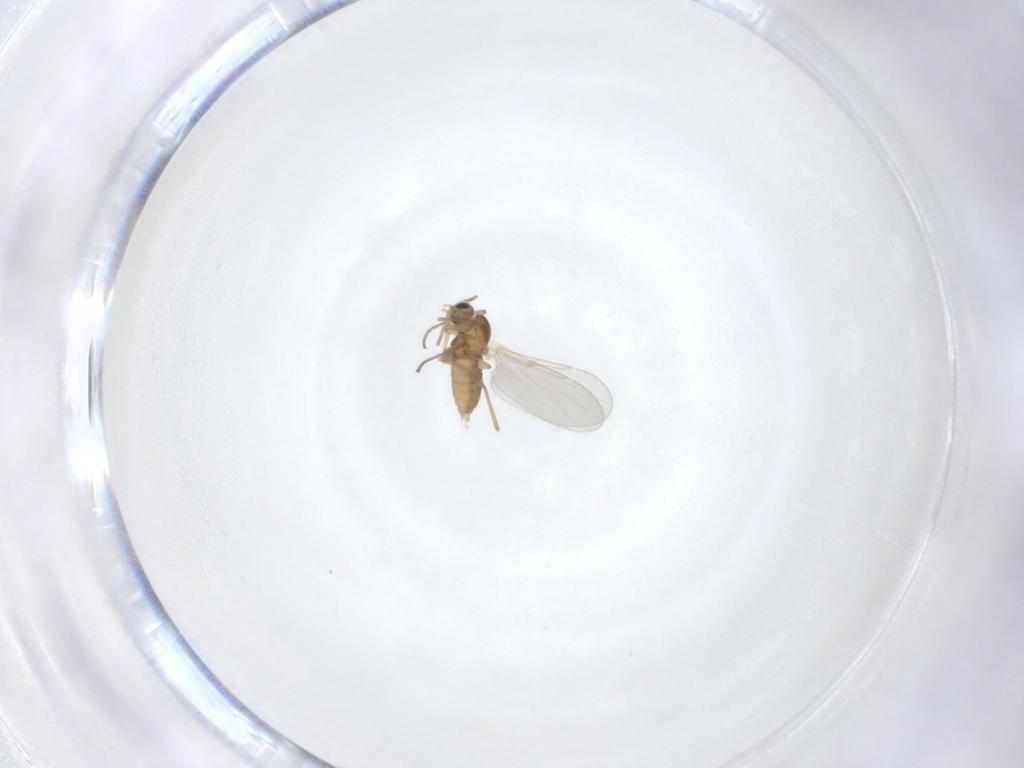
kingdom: Animalia
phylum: Arthropoda
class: Insecta
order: Diptera
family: Cecidomyiidae
